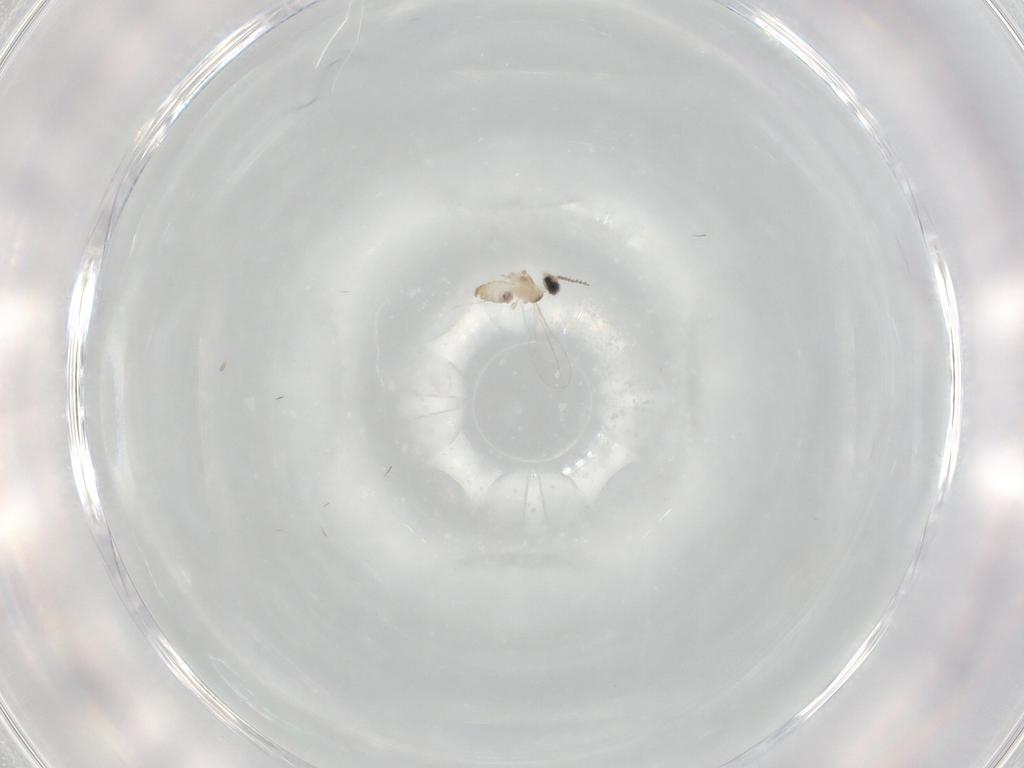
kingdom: Animalia
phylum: Arthropoda
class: Insecta
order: Diptera
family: Cecidomyiidae
